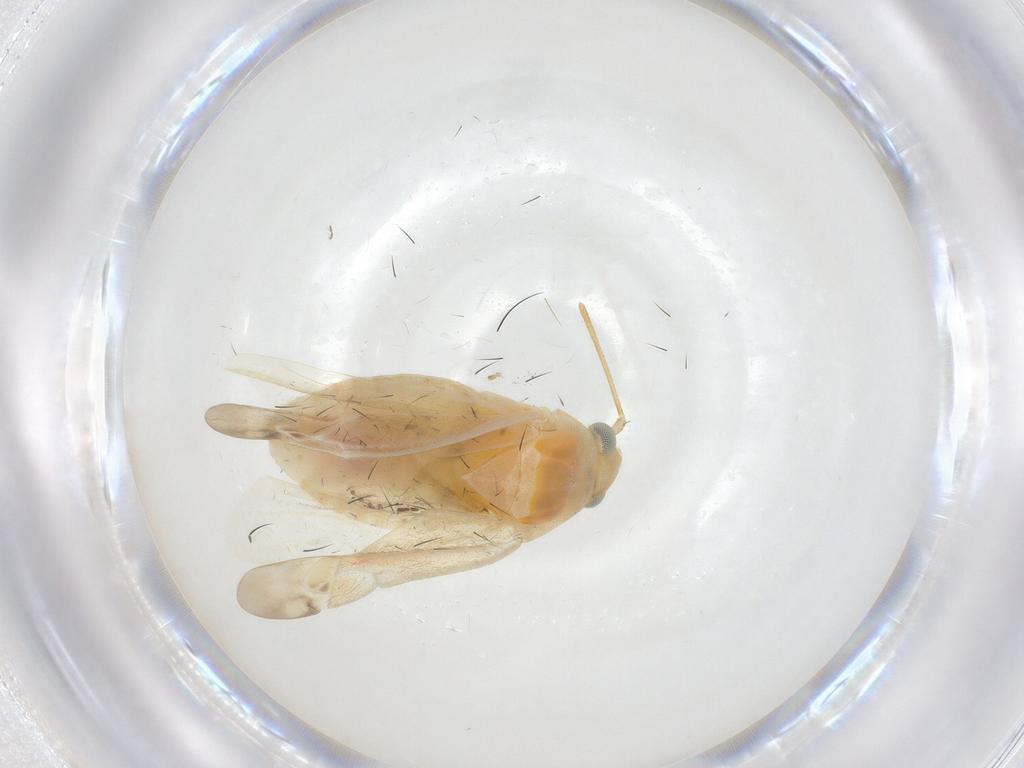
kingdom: Animalia
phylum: Arthropoda
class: Insecta
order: Hemiptera
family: Miridae
